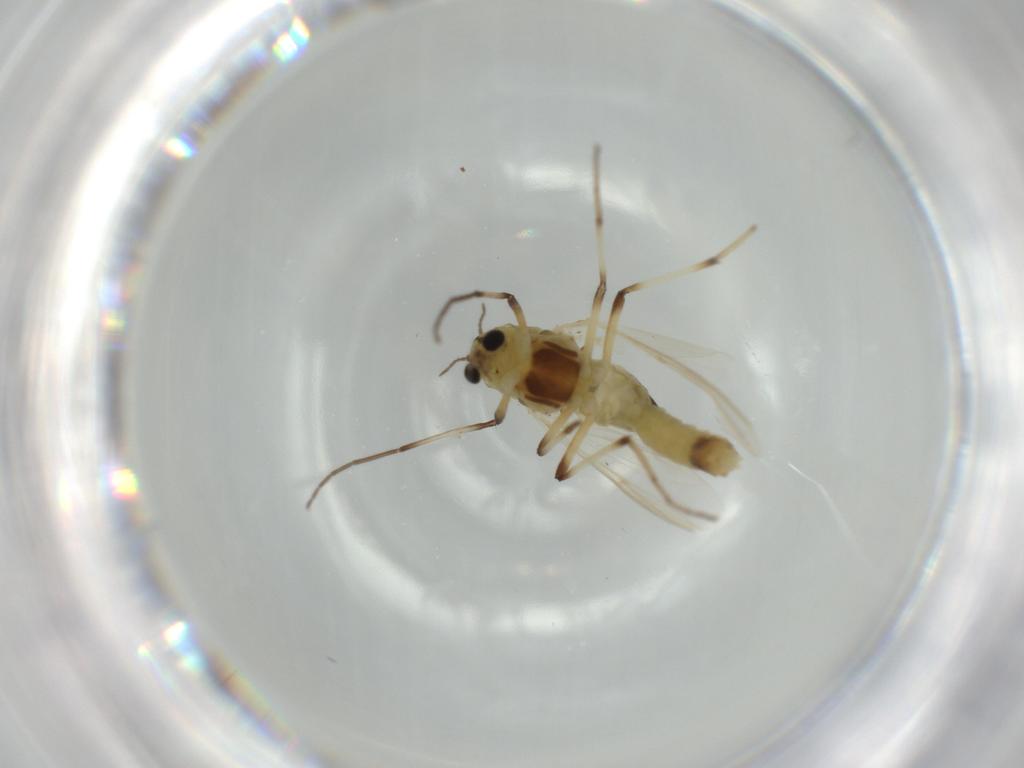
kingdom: Animalia
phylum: Arthropoda
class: Insecta
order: Diptera
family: Chironomidae
